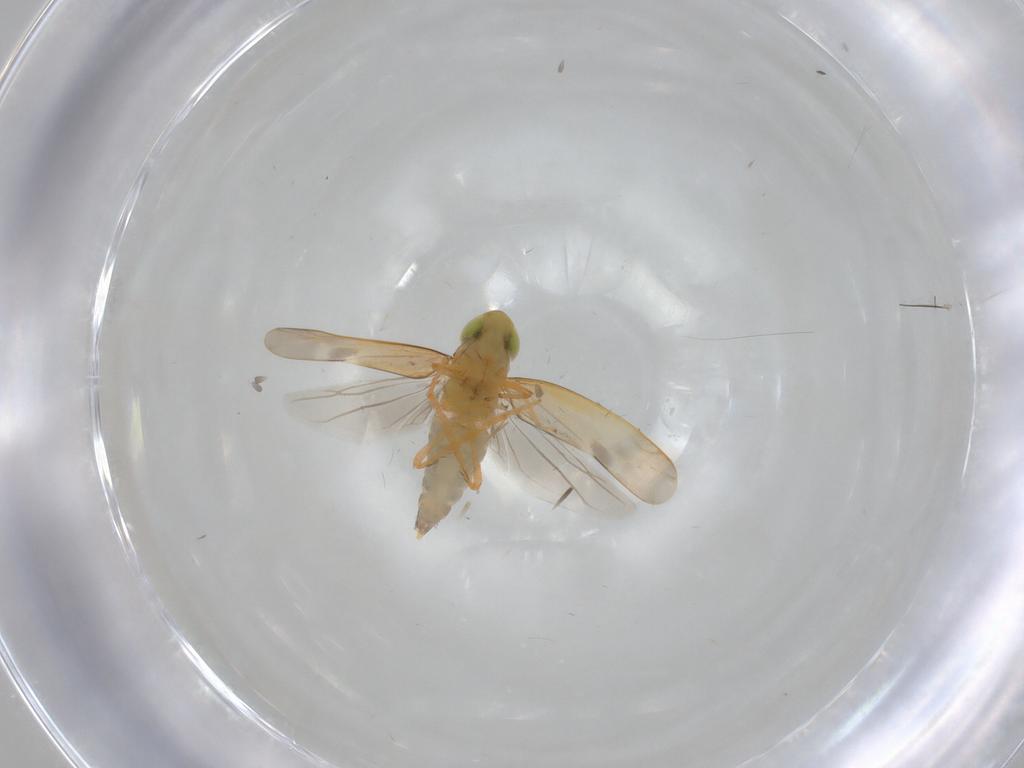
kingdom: Animalia
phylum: Arthropoda
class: Insecta
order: Hemiptera
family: Cicadellidae
